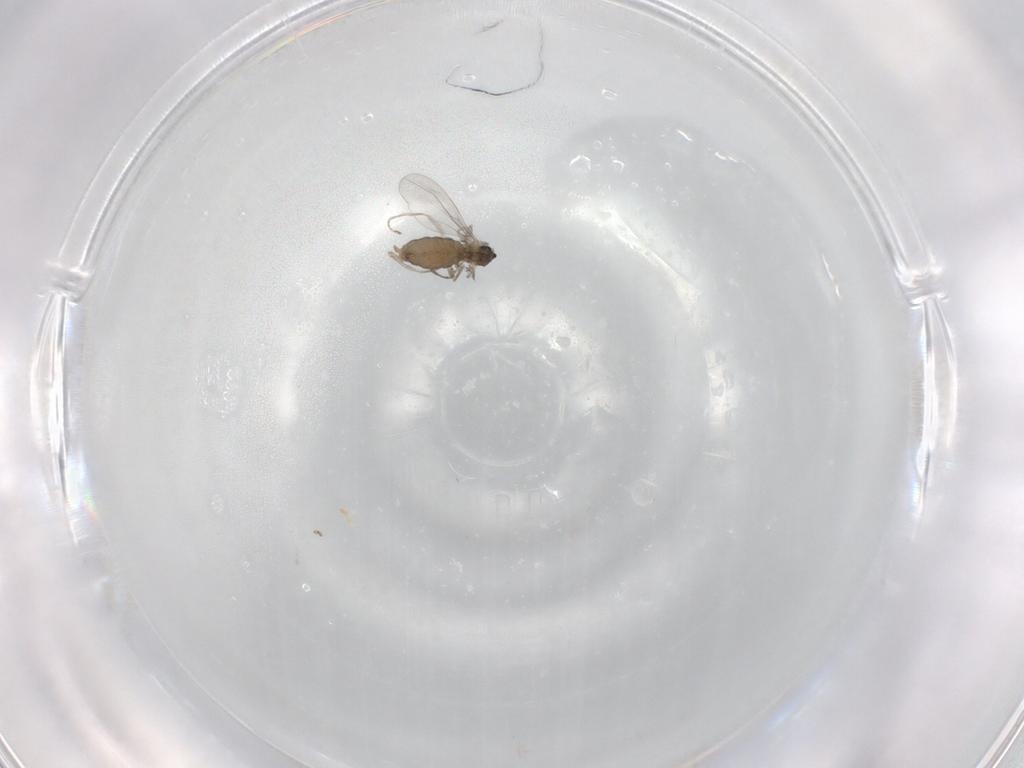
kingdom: Animalia
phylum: Arthropoda
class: Insecta
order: Diptera
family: Cecidomyiidae
